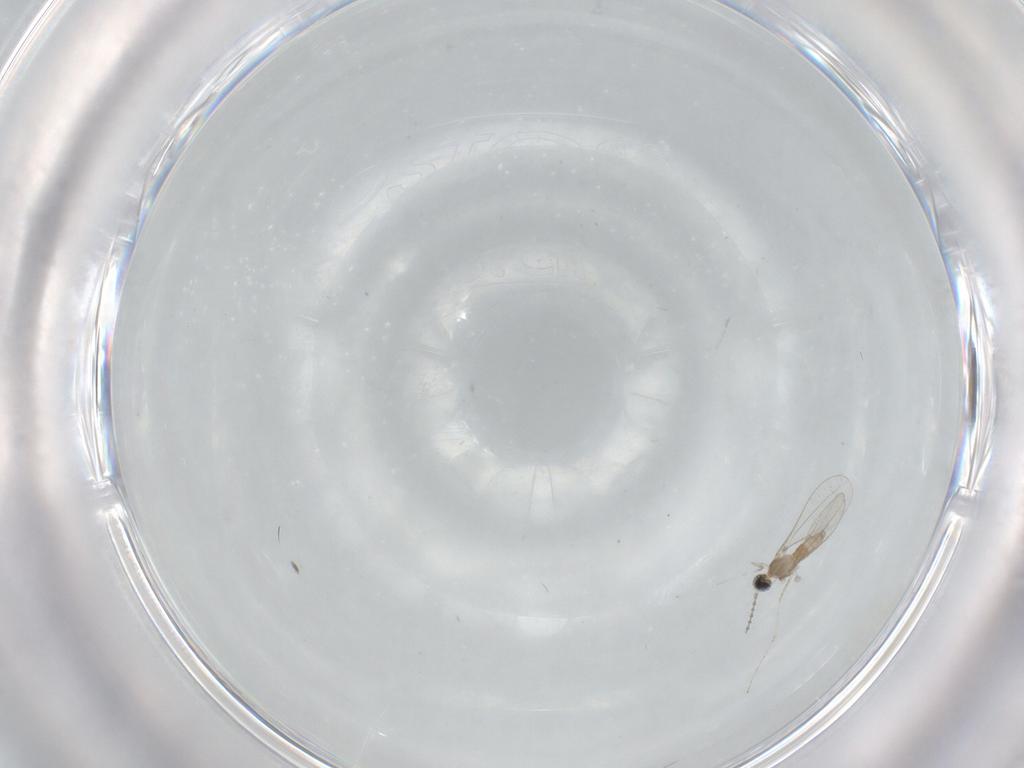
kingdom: Animalia
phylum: Arthropoda
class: Insecta
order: Diptera
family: Cecidomyiidae
